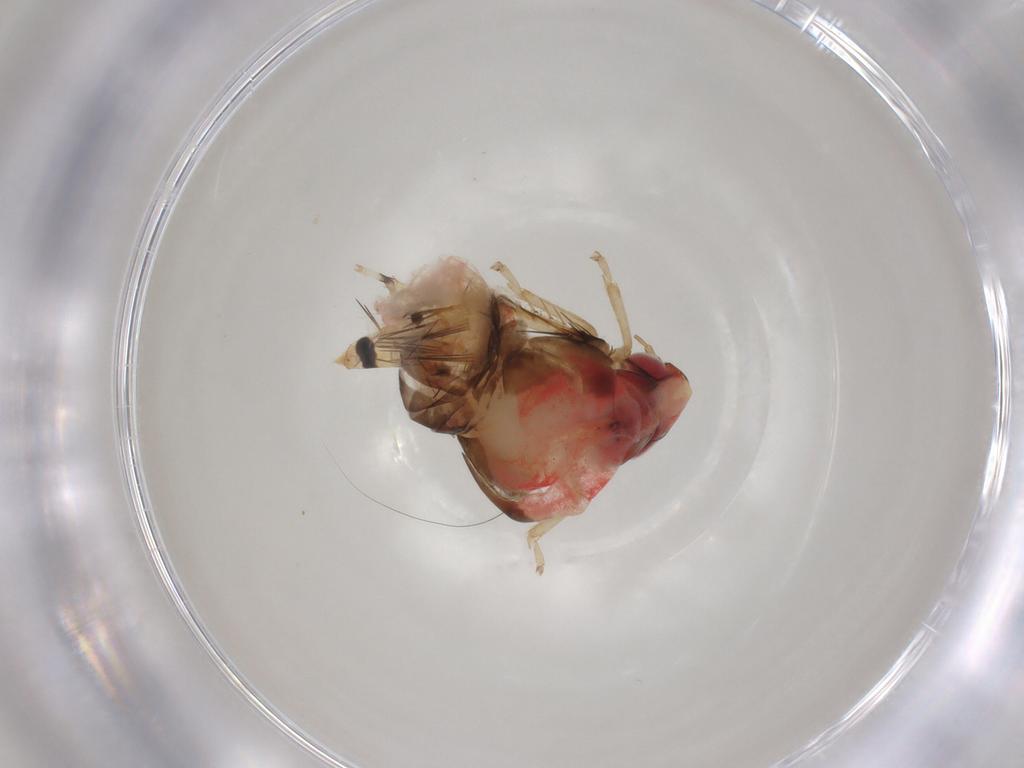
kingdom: Animalia
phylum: Arthropoda
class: Insecta
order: Hemiptera
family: Cicadellidae
